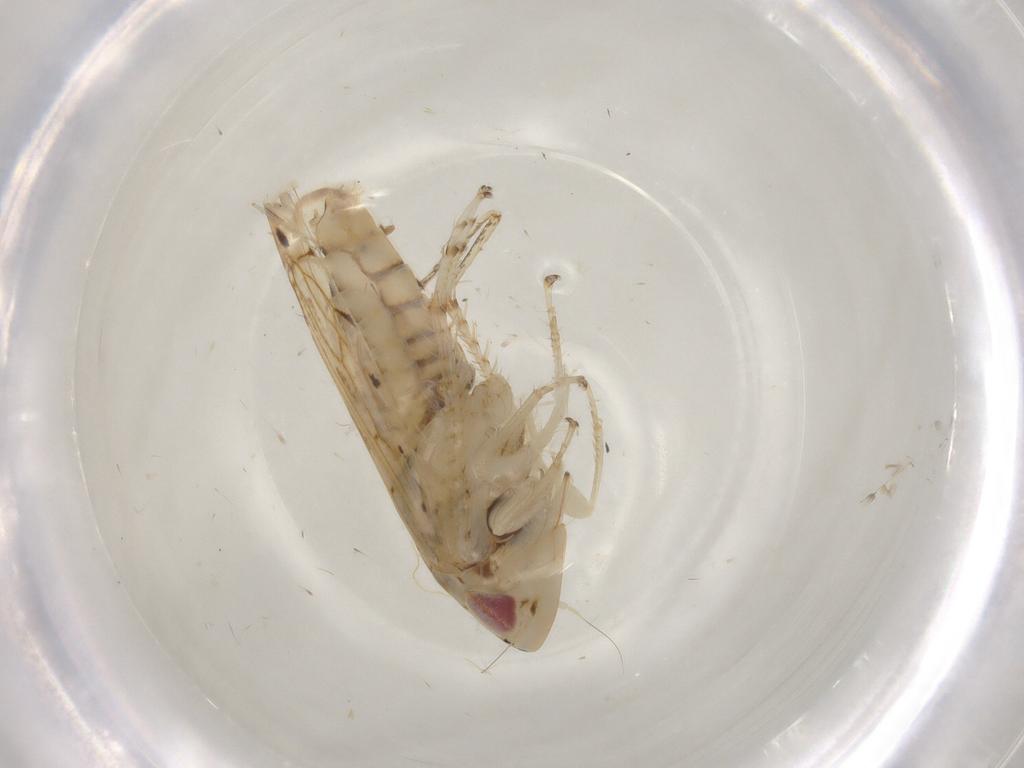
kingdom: Animalia
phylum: Arthropoda
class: Insecta
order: Hemiptera
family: Cicadellidae
